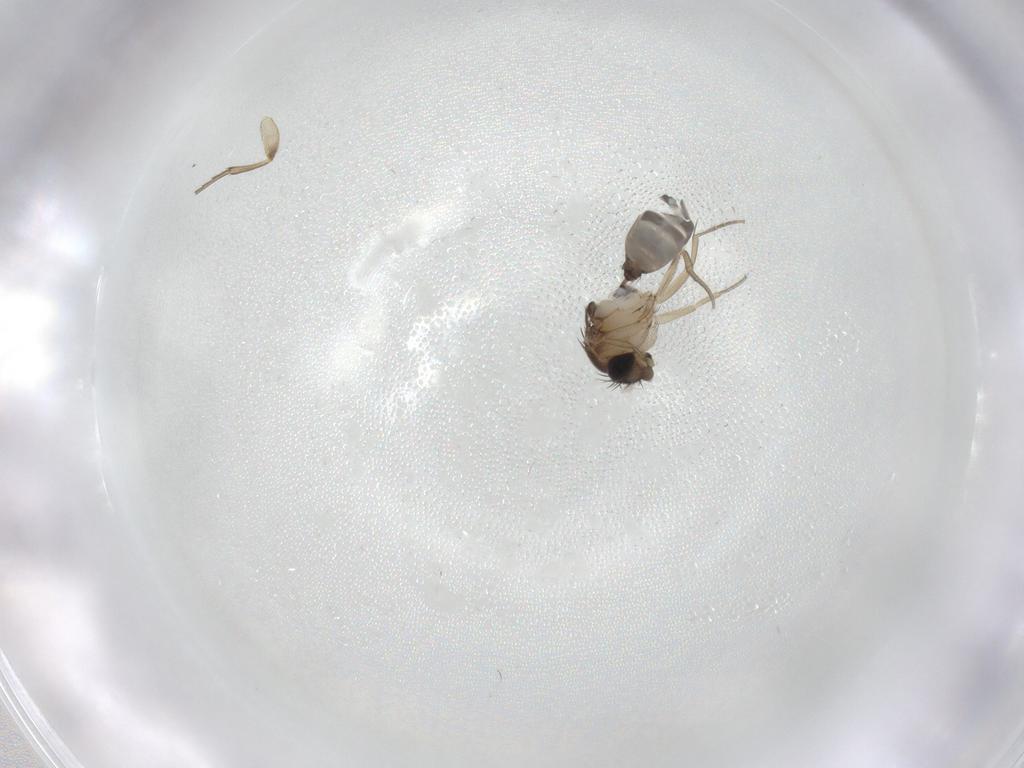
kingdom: Animalia
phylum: Arthropoda
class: Insecta
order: Diptera
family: Phoridae
